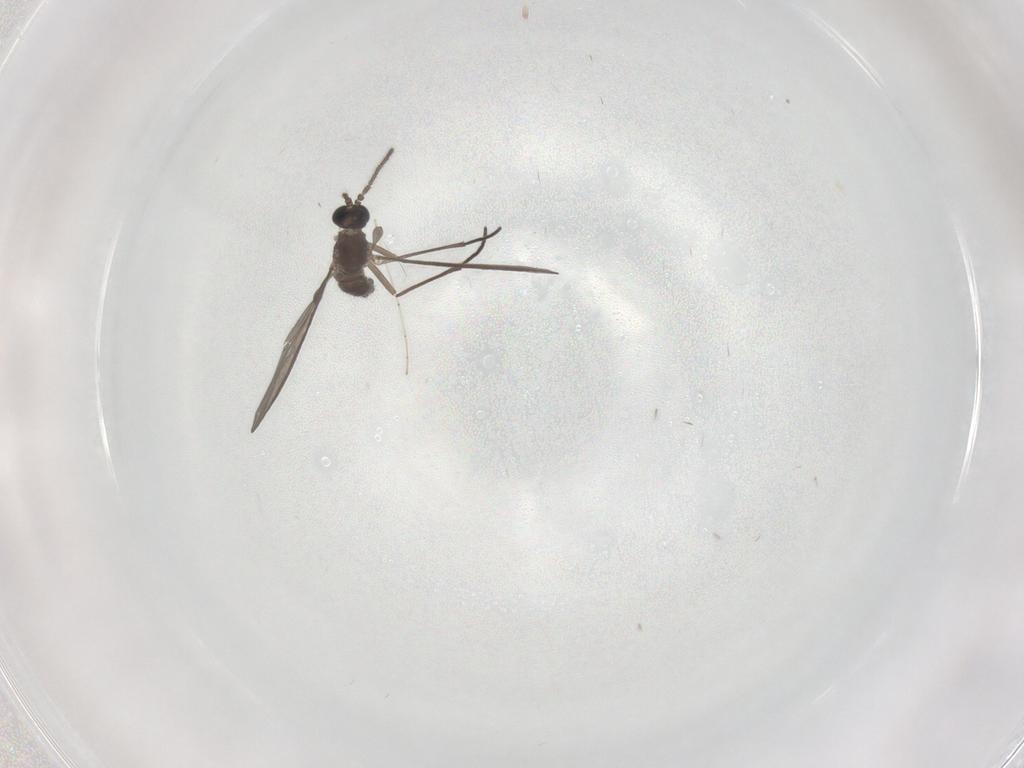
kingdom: Animalia
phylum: Arthropoda
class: Insecta
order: Diptera
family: Cecidomyiidae
